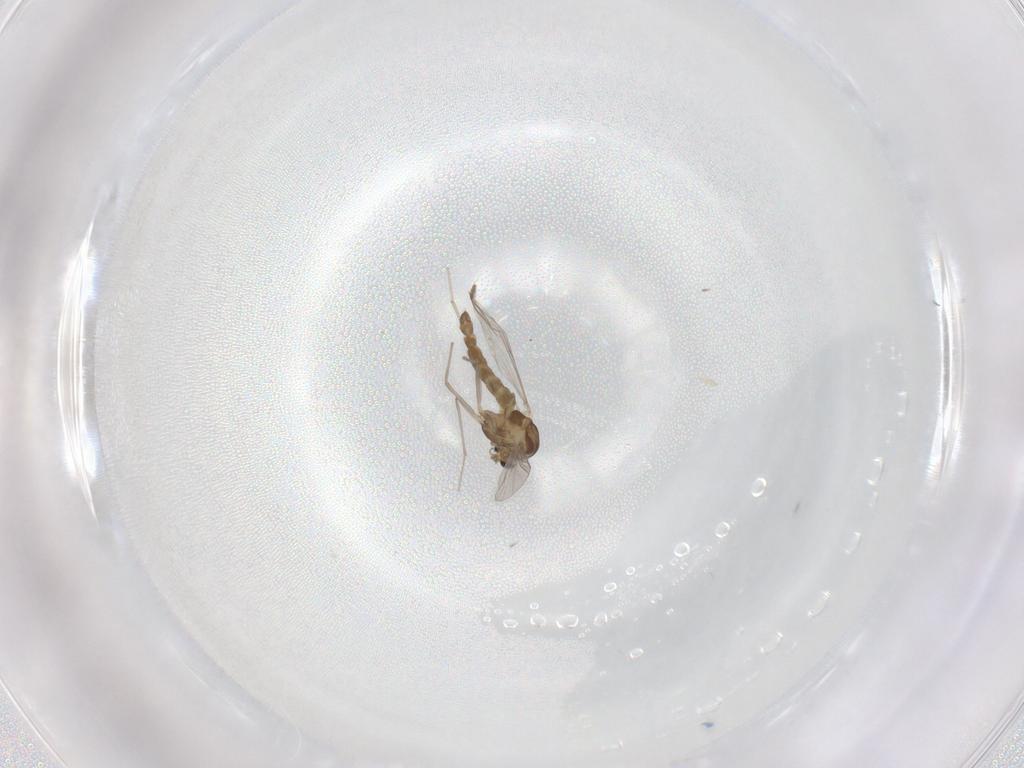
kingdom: Animalia
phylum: Arthropoda
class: Insecta
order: Diptera
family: Chironomidae
